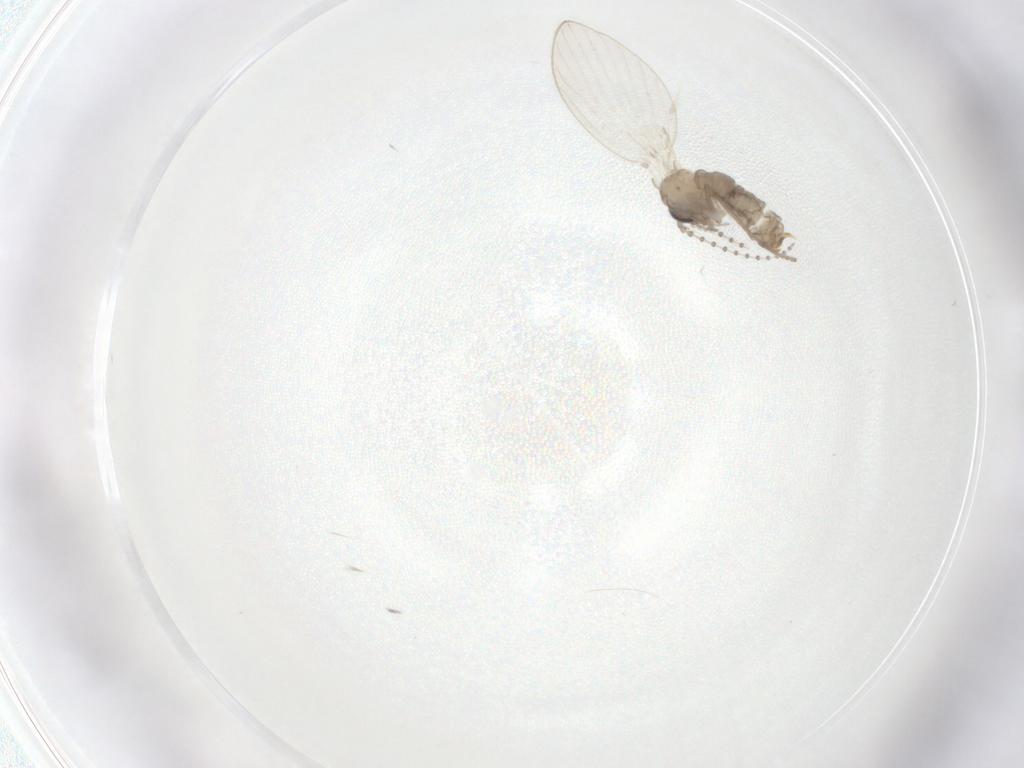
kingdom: Animalia
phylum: Arthropoda
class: Insecta
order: Diptera
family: Psychodidae
